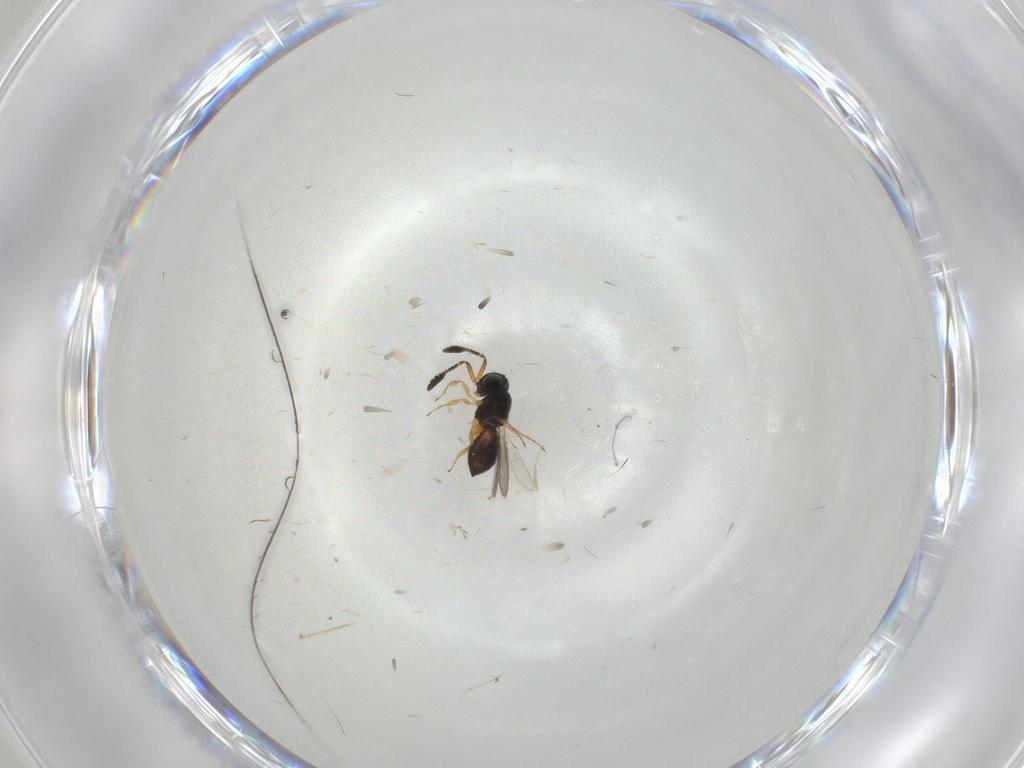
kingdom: Animalia
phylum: Arthropoda
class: Insecta
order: Hymenoptera
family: Scelionidae
